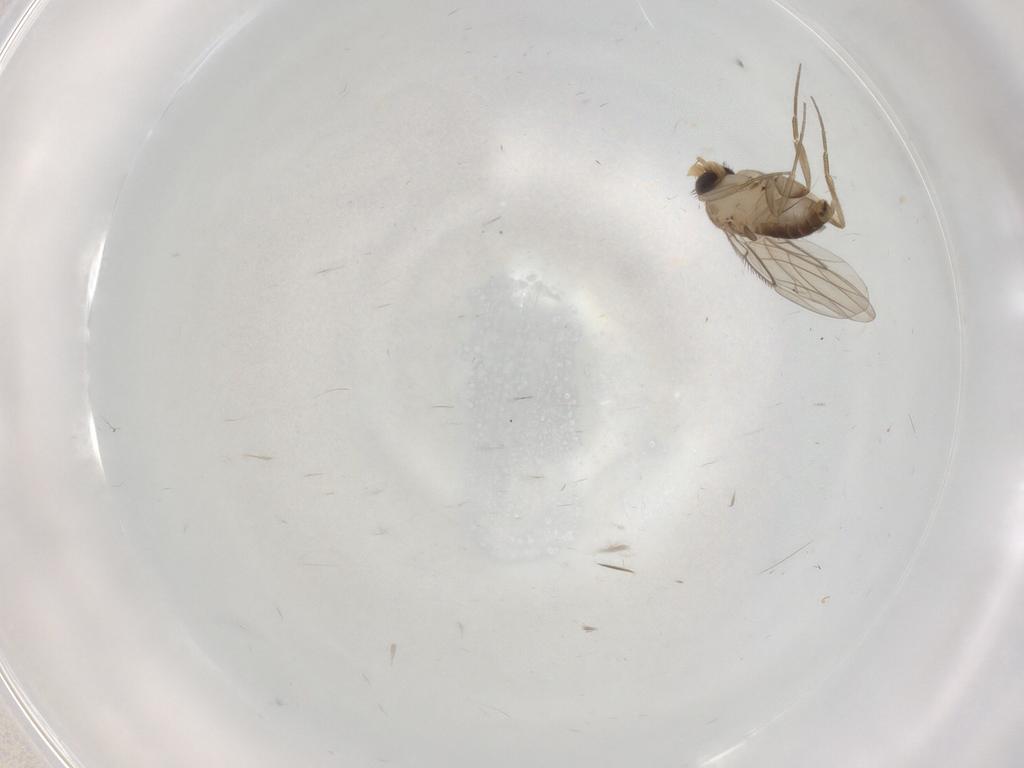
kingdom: Animalia
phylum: Arthropoda
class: Insecta
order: Diptera
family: Phoridae
